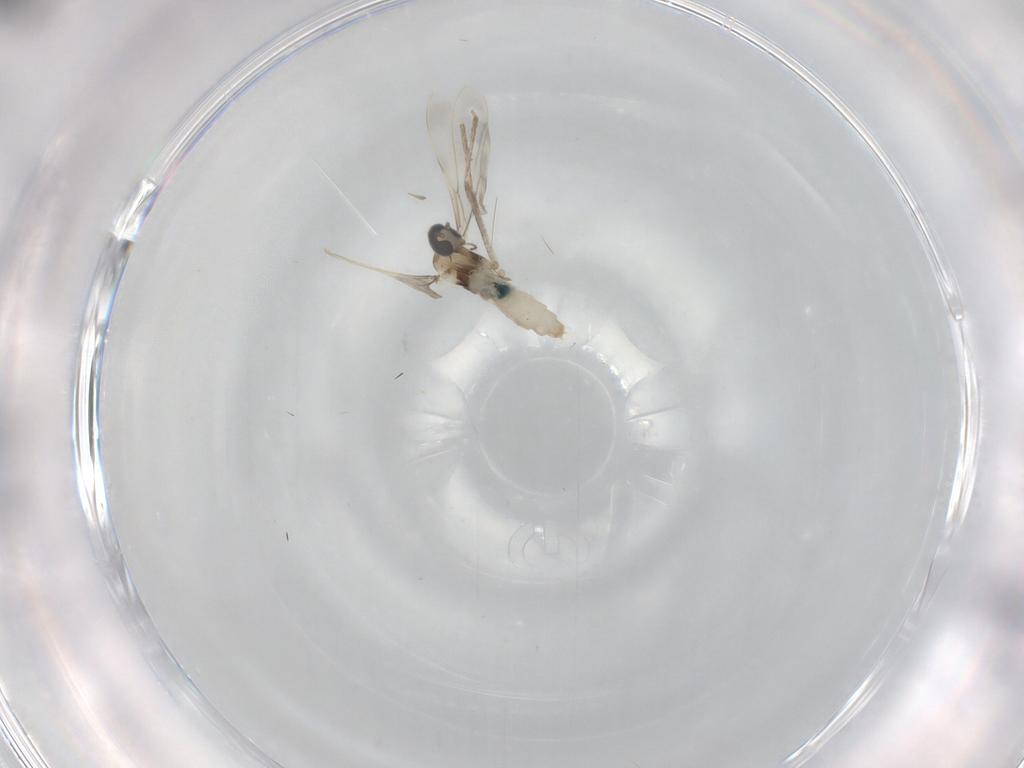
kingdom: Animalia
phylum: Arthropoda
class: Insecta
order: Diptera
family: Cecidomyiidae
